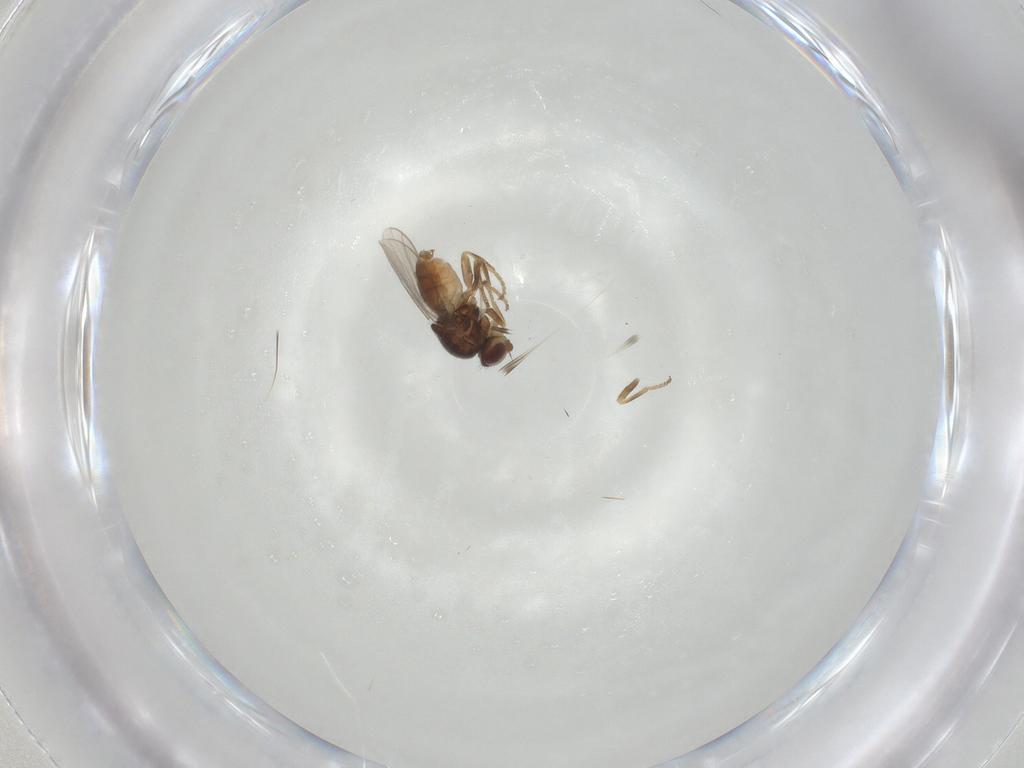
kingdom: Animalia
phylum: Arthropoda
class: Insecta
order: Diptera
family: Chloropidae
